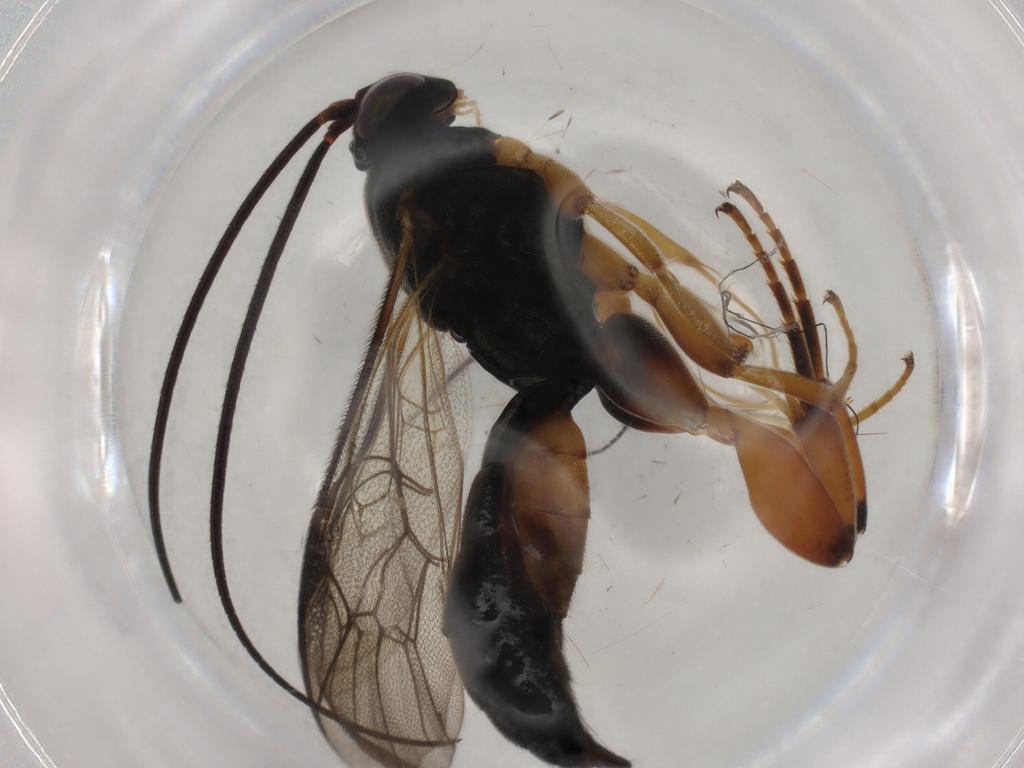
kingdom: Animalia
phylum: Arthropoda
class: Insecta
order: Hymenoptera
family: Ichneumonidae
